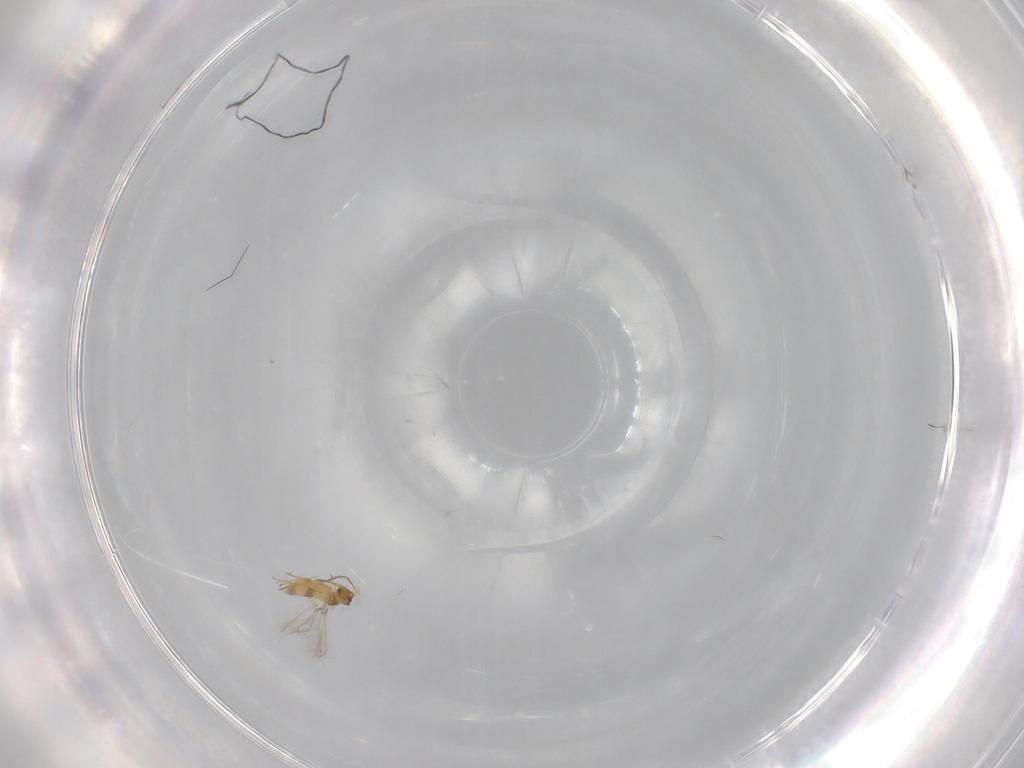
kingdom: Animalia
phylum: Arthropoda
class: Insecta
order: Hymenoptera
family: Mymaridae
